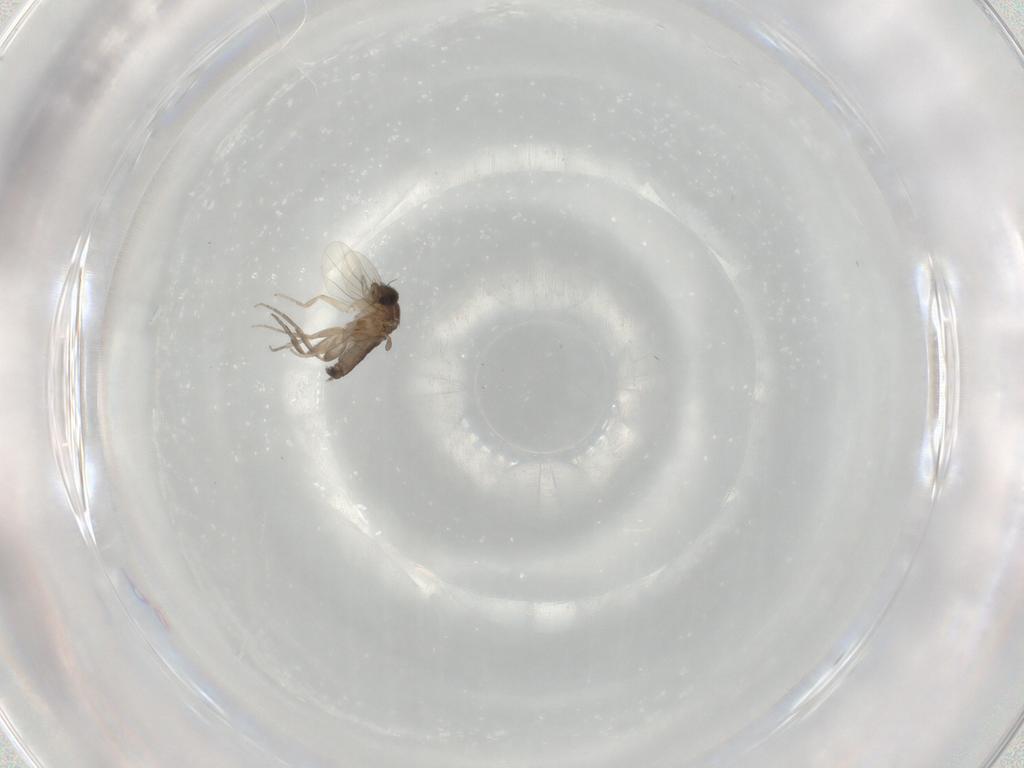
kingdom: Animalia
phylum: Arthropoda
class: Insecta
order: Diptera
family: Phoridae
